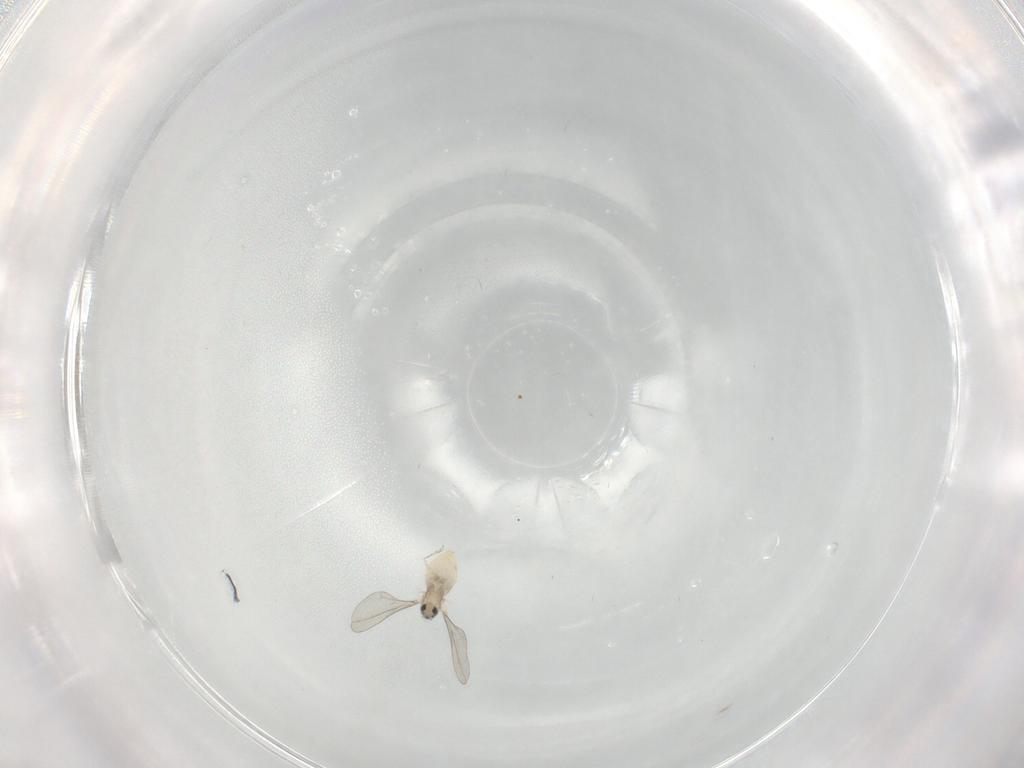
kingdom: Animalia
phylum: Arthropoda
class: Insecta
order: Diptera
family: Cecidomyiidae
